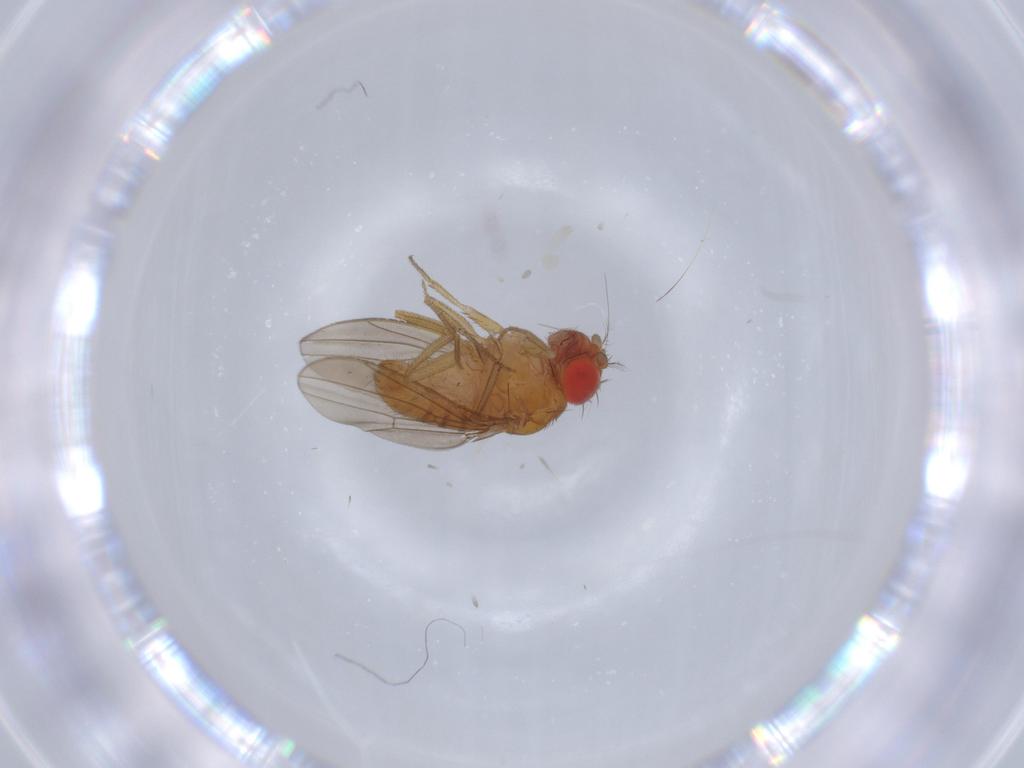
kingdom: Animalia
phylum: Arthropoda
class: Insecta
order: Diptera
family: Drosophilidae
